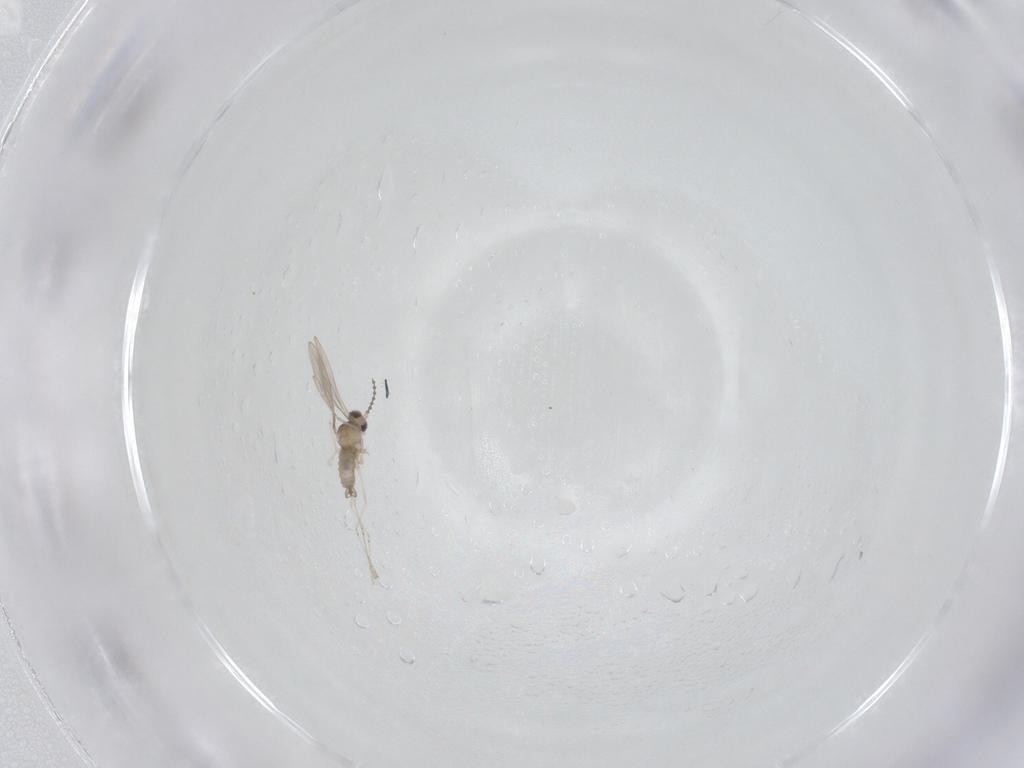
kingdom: Animalia
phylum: Arthropoda
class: Insecta
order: Diptera
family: Cecidomyiidae
